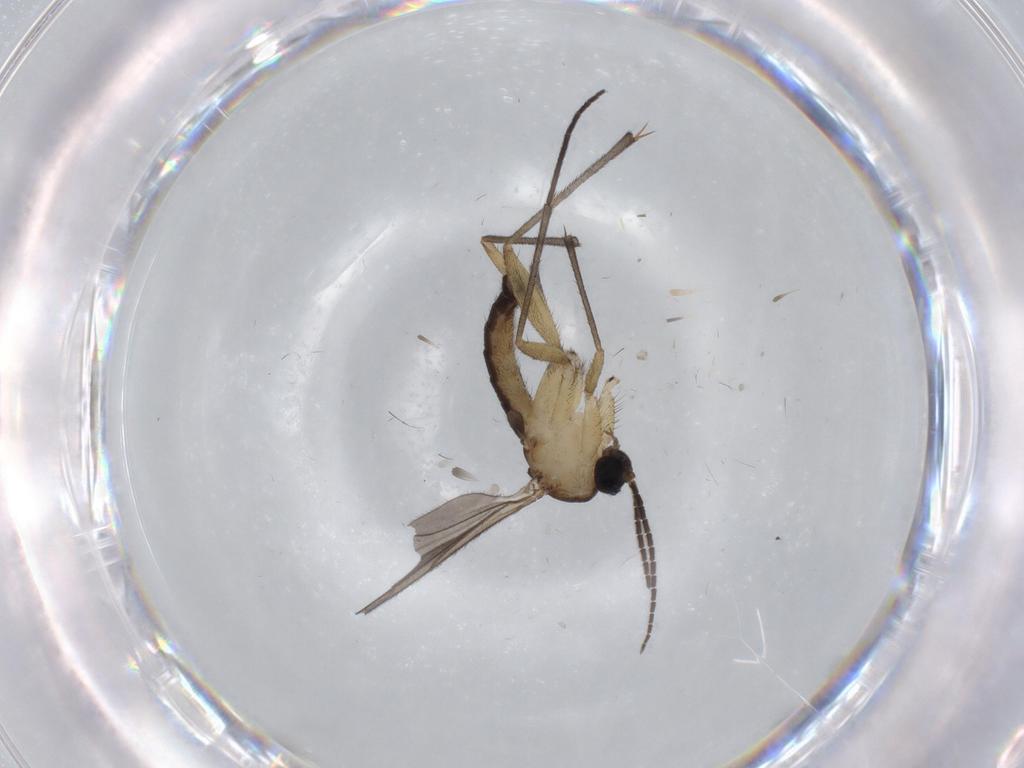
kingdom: Animalia
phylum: Arthropoda
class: Insecta
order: Diptera
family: Sciaridae
